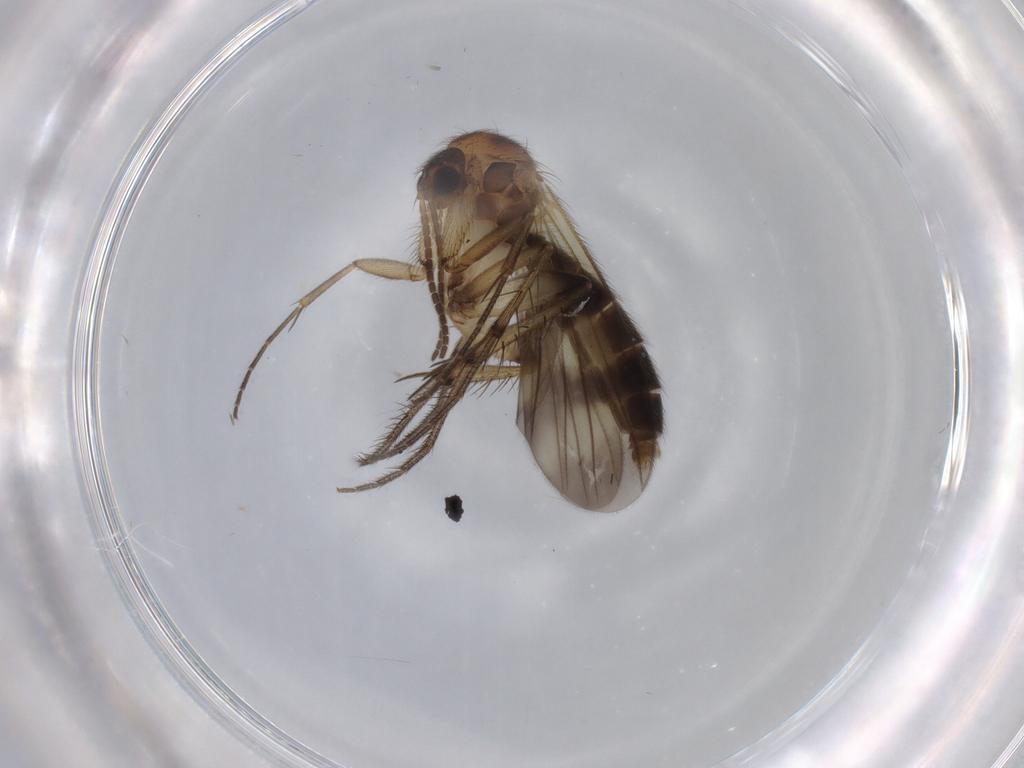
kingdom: Animalia
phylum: Arthropoda
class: Insecta
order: Diptera
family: Mycetophilidae
